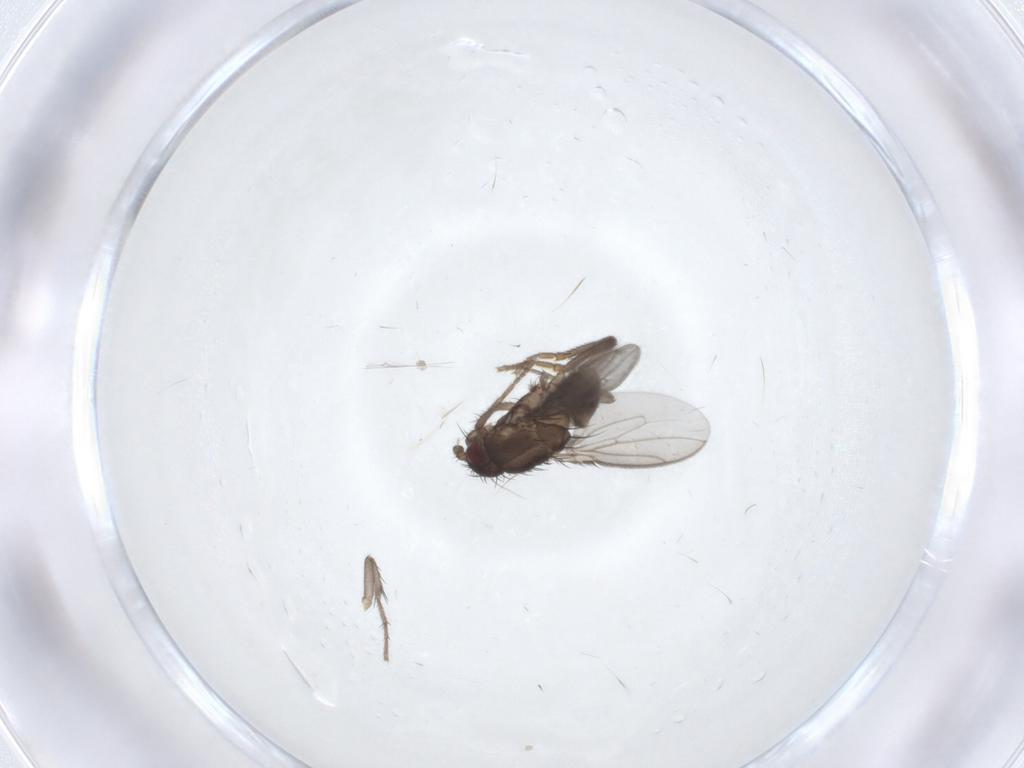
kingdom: Animalia
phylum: Arthropoda
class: Insecta
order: Diptera
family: Sphaeroceridae
